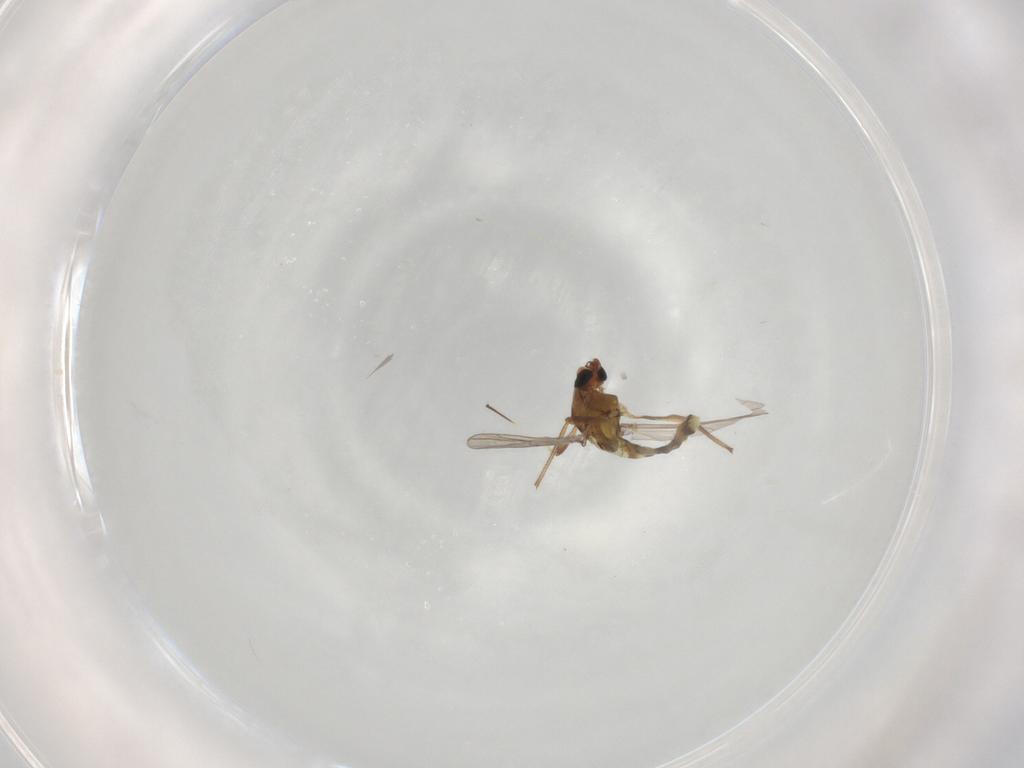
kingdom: Animalia
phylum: Arthropoda
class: Insecta
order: Diptera
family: Chironomidae
